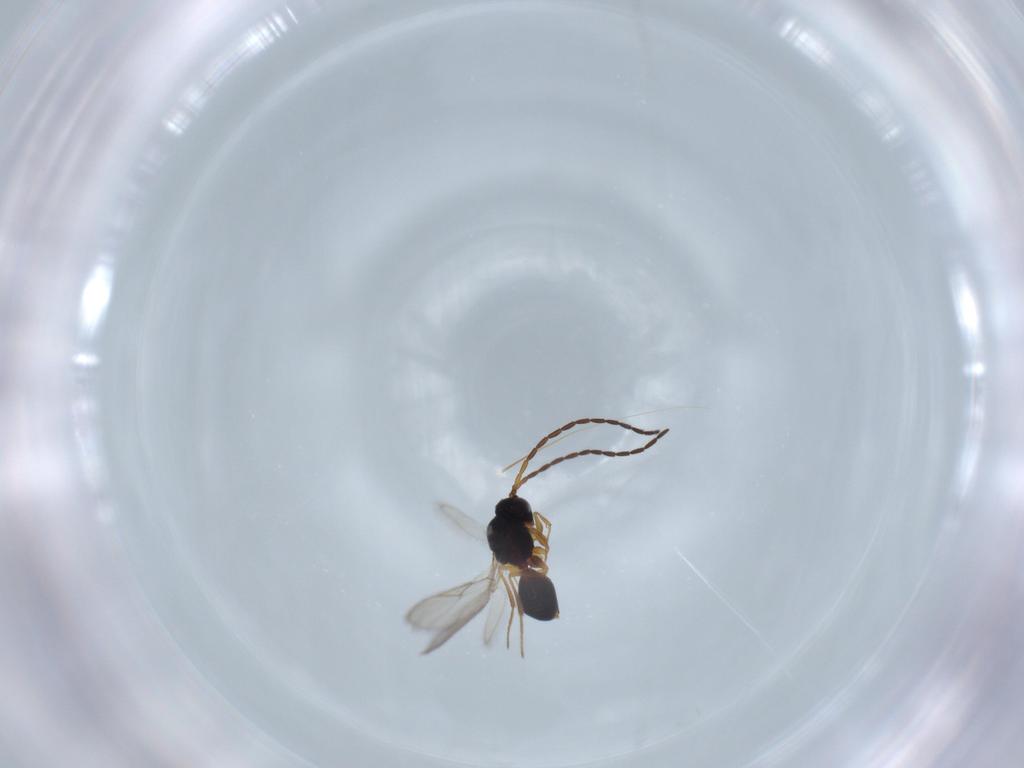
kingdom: Animalia
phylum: Arthropoda
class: Insecta
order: Hymenoptera
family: Figitidae
